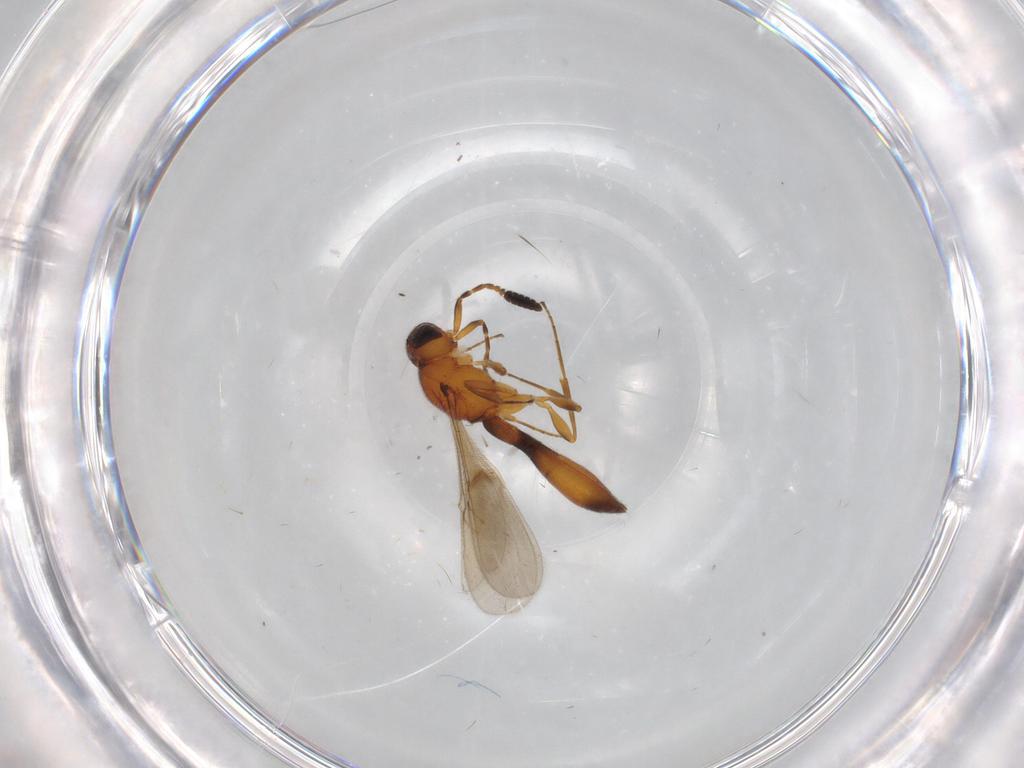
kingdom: Animalia
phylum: Arthropoda
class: Insecta
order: Hymenoptera
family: Scelionidae
